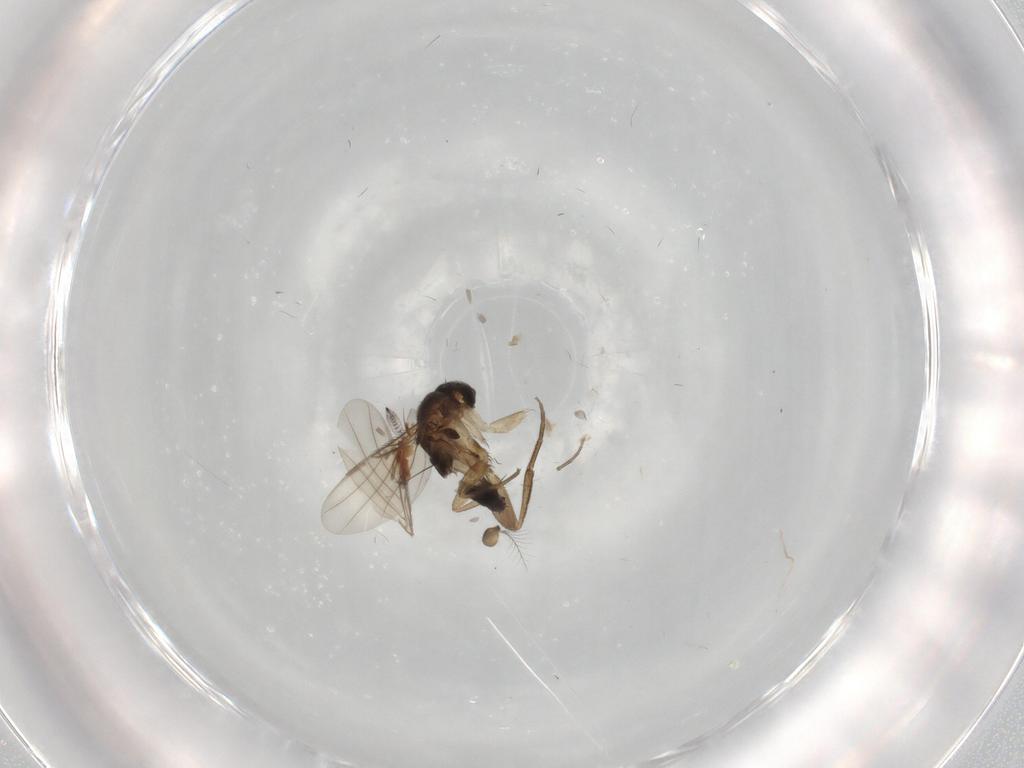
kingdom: Animalia
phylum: Arthropoda
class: Insecta
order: Diptera
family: Phoridae
